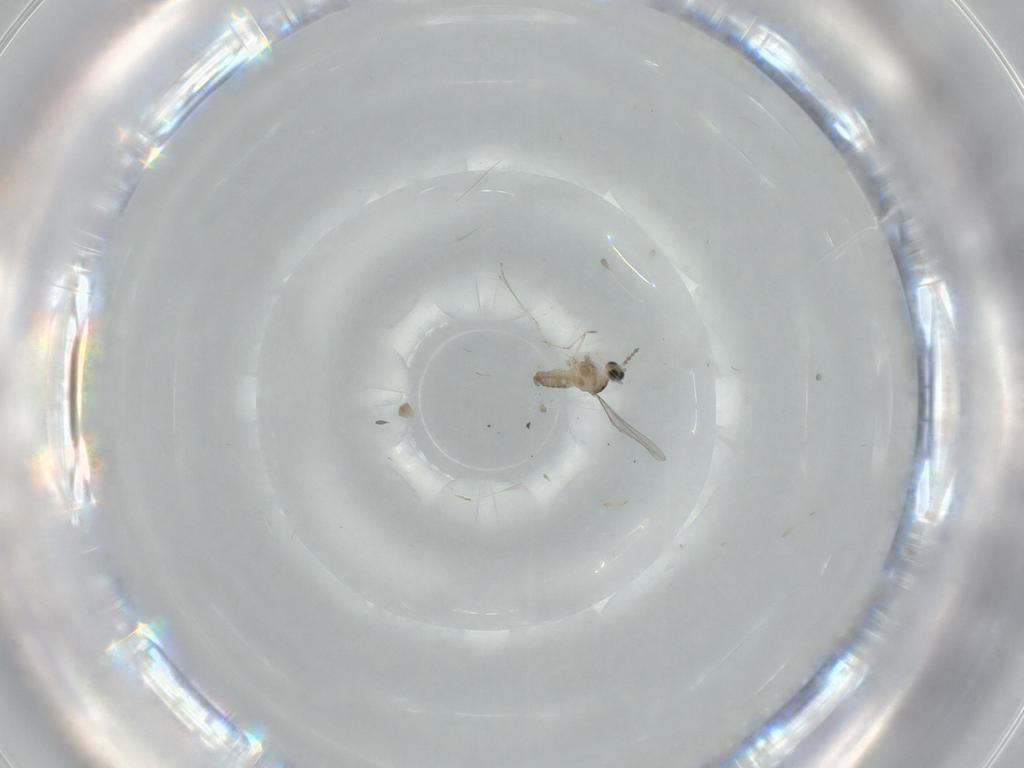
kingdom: Animalia
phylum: Arthropoda
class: Insecta
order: Diptera
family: Cecidomyiidae
